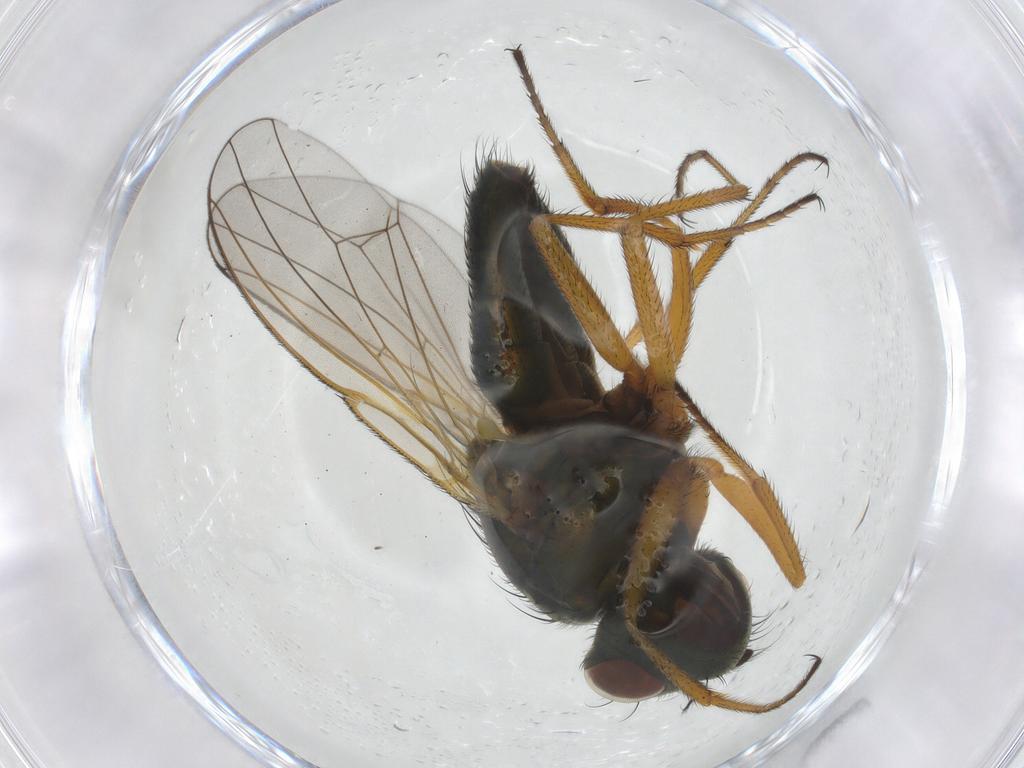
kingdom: Animalia
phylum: Arthropoda
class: Insecta
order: Diptera
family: Ephydridae
